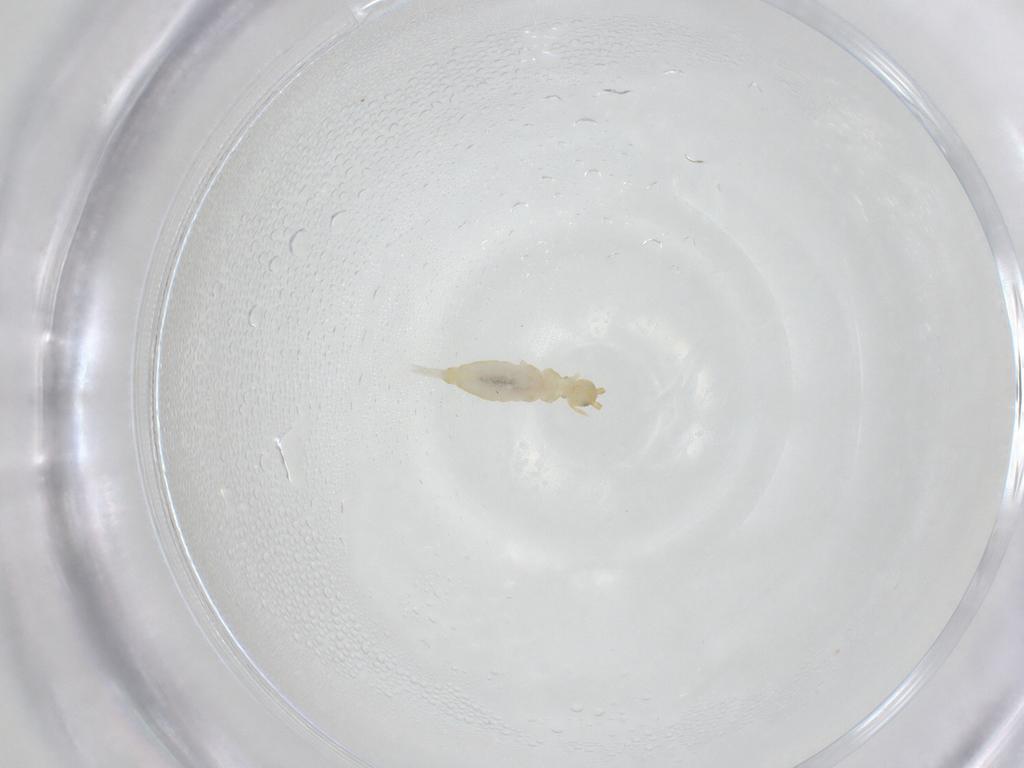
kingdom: Animalia
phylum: Arthropoda
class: Collembola
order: Entomobryomorpha
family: Entomobryidae
